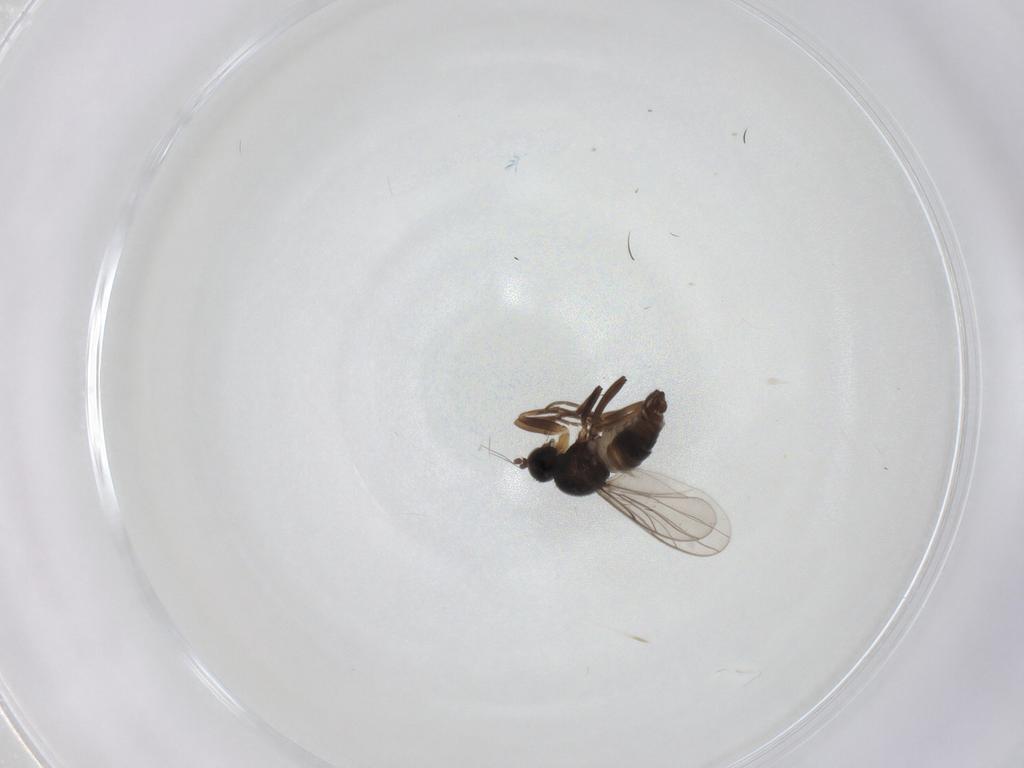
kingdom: Animalia
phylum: Arthropoda
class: Insecta
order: Diptera
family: Hybotidae
